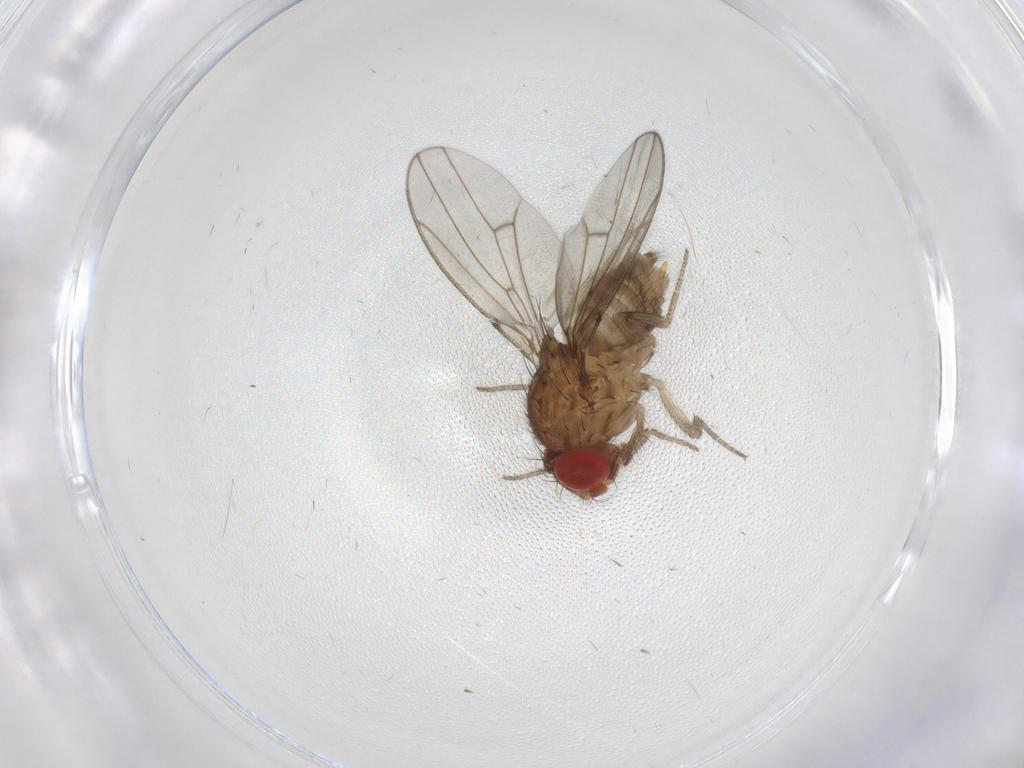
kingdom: Animalia
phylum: Arthropoda
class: Insecta
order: Diptera
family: Drosophilidae
